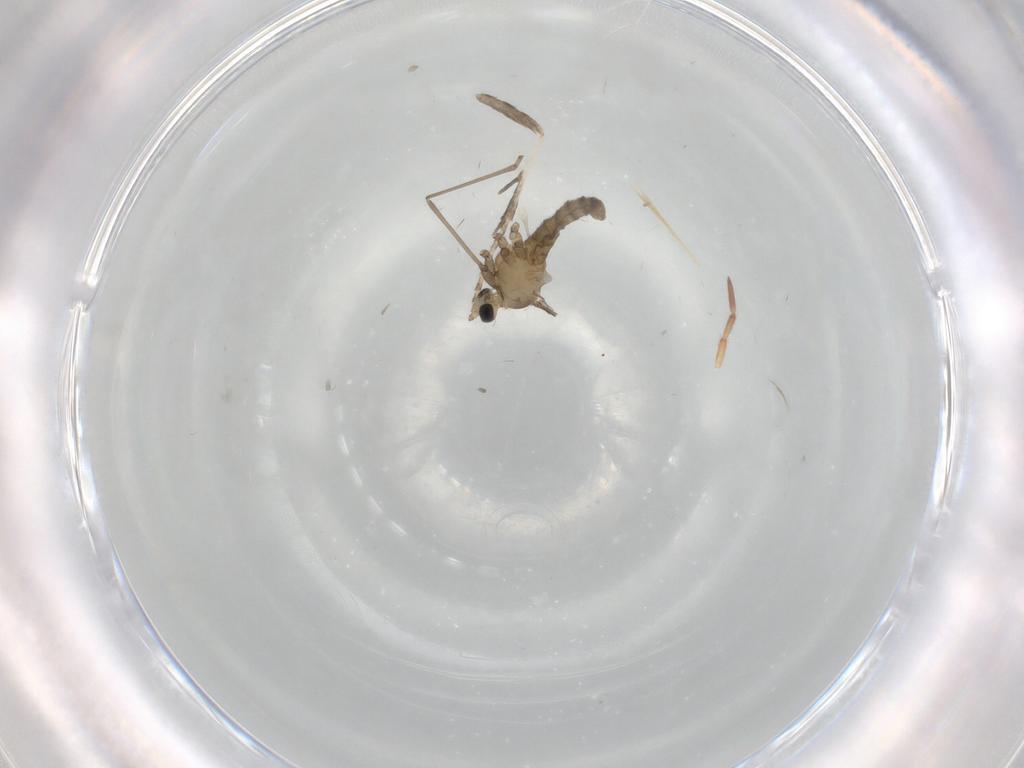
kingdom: Animalia
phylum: Arthropoda
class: Insecta
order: Diptera
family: Cecidomyiidae
